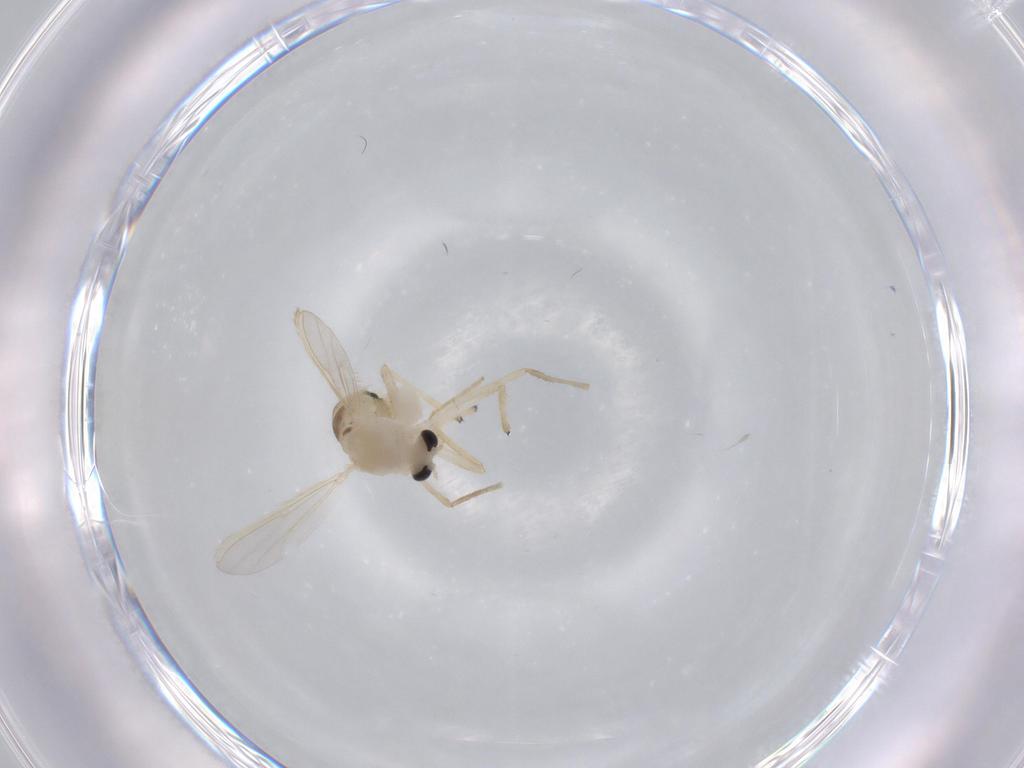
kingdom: Animalia
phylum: Arthropoda
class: Insecta
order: Diptera
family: Chironomidae
